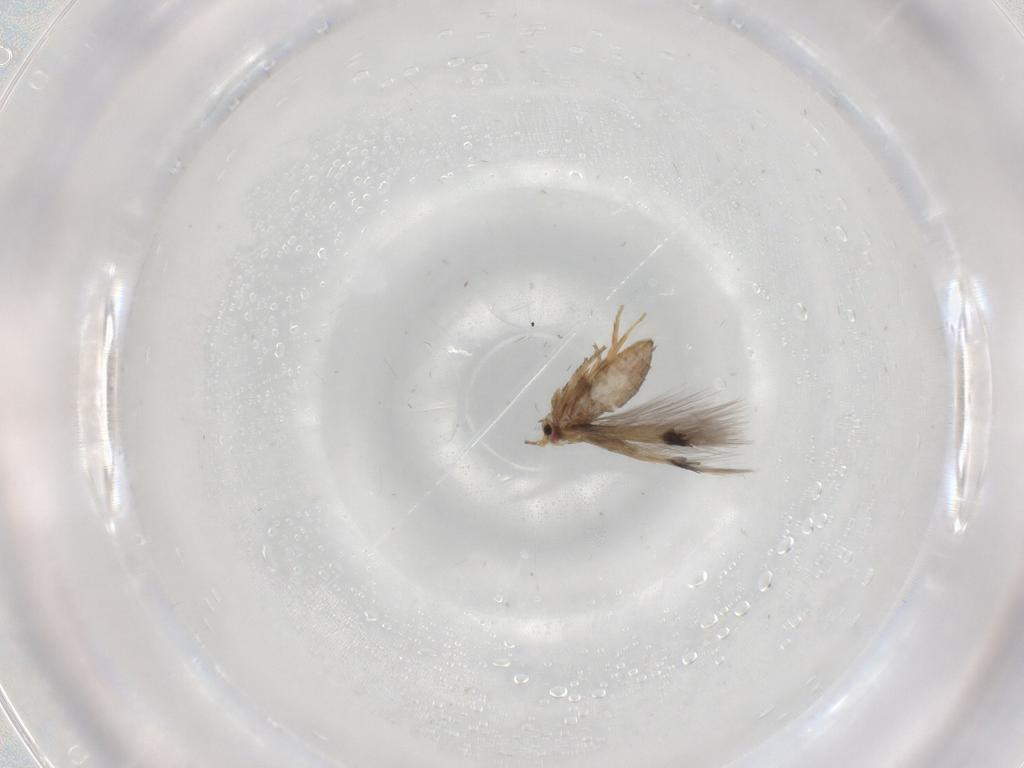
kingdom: Animalia
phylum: Arthropoda
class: Insecta
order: Lepidoptera
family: Nepticulidae
